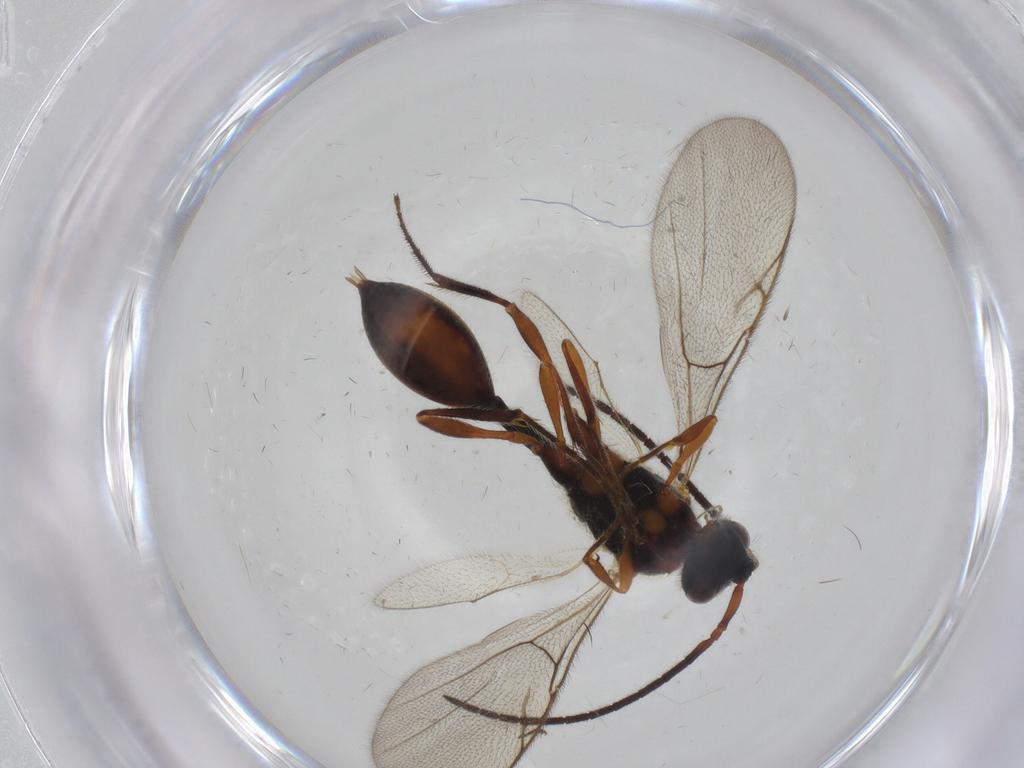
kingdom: Animalia
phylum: Arthropoda
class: Insecta
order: Hymenoptera
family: Diapriidae
